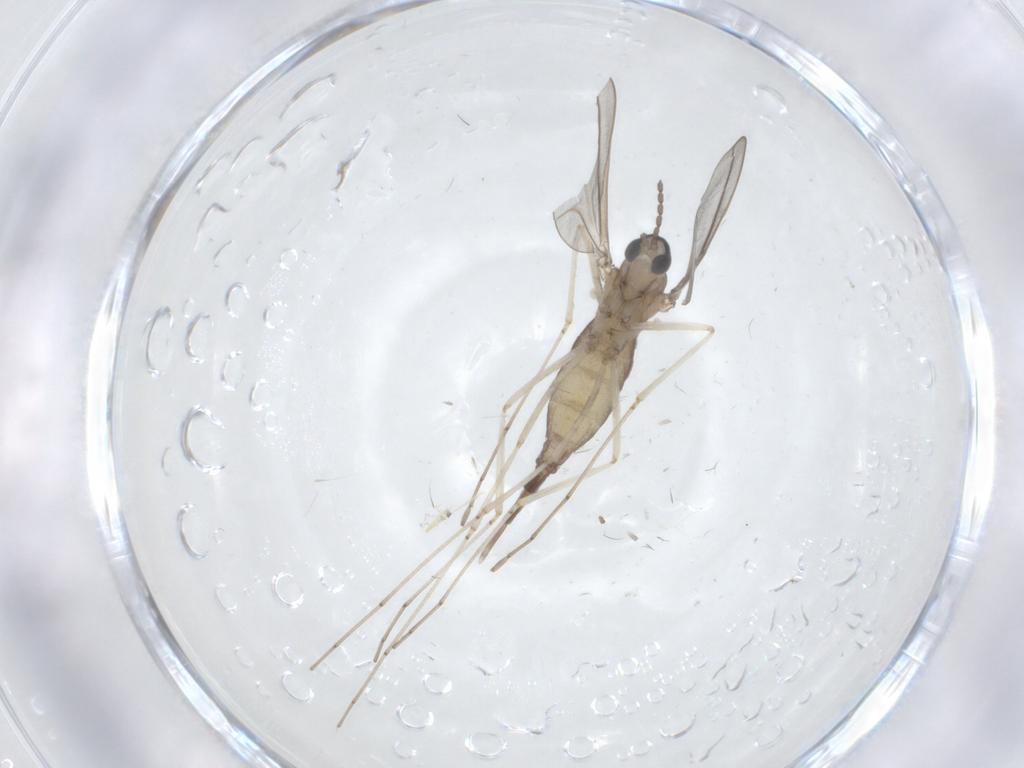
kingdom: Animalia
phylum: Arthropoda
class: Insecta
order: Diptera
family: Cecidomyiidae
